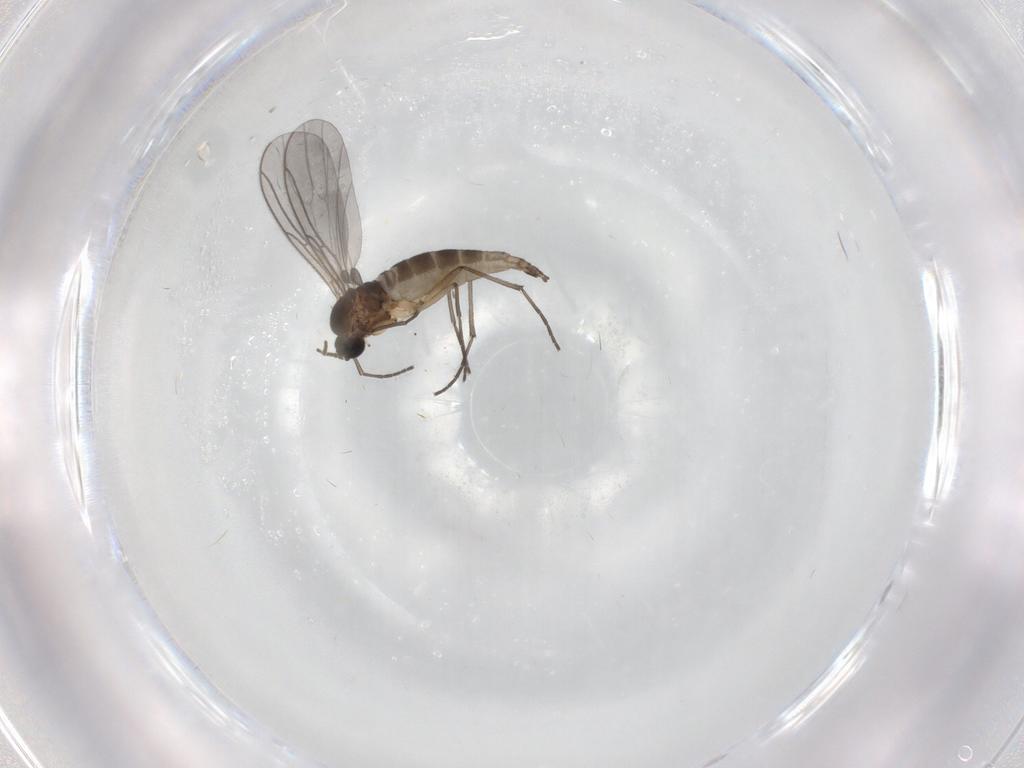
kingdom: Animalia
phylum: Arthropoda
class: Insecta
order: Diptera
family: Sciaridae
